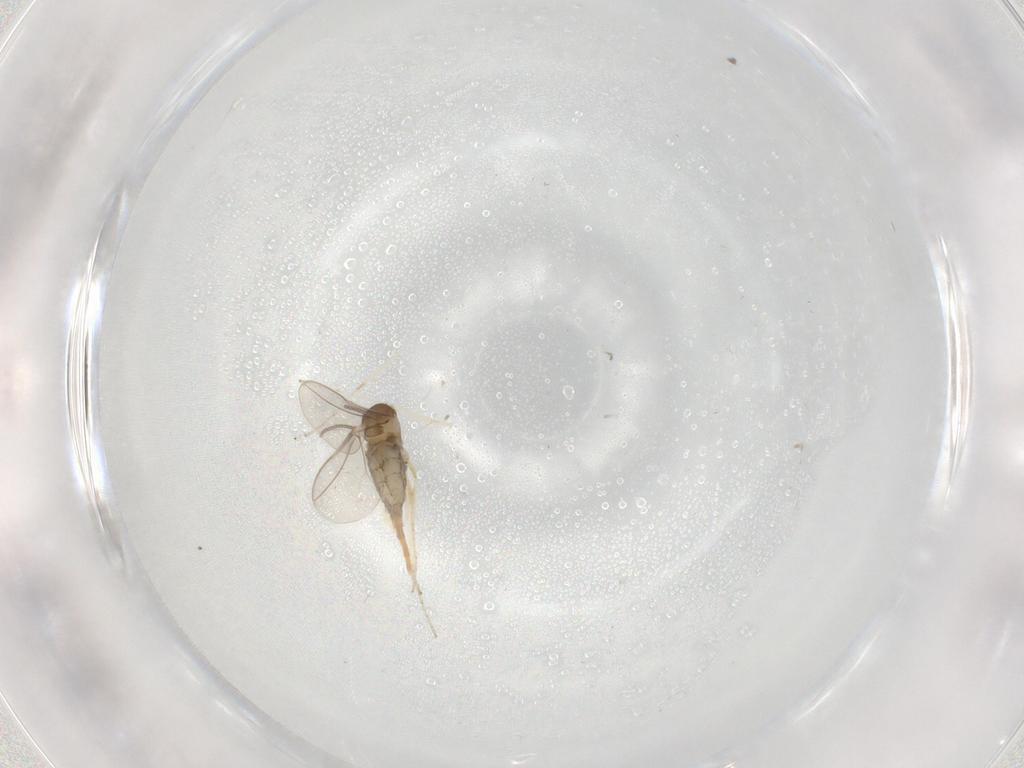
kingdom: Animalia
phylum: Arthropoda
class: Insecta
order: Diptera
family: Cecidomyiidae
